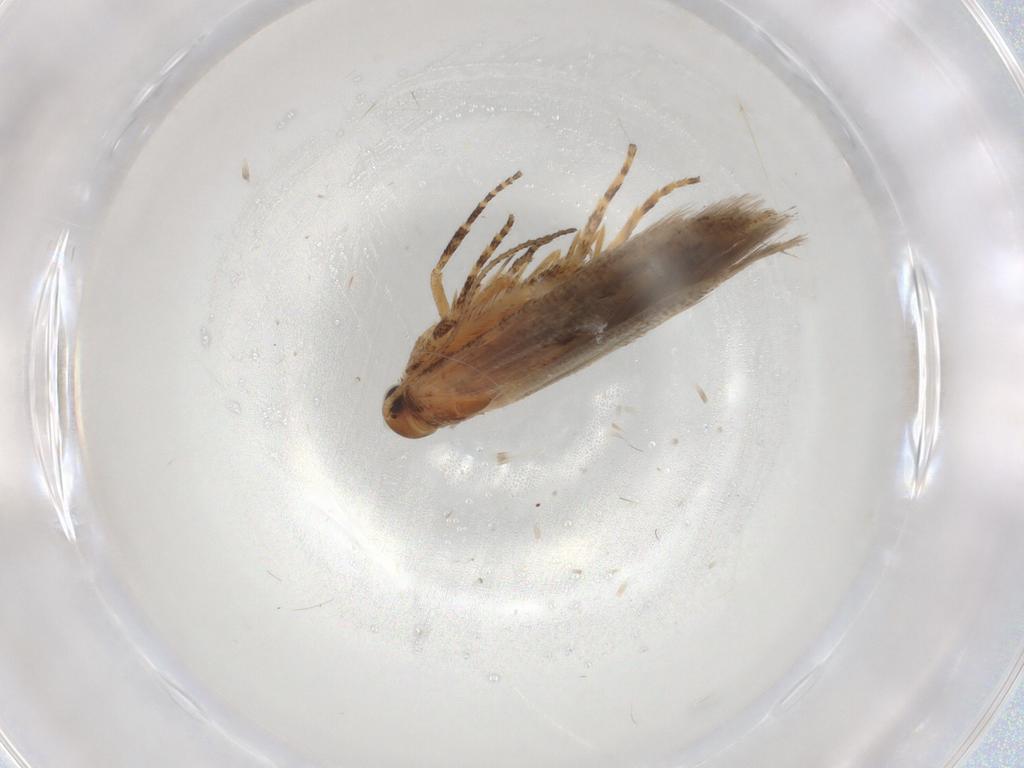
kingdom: Animalia
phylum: Arthropoda
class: Insecta
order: Lepidoptera
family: Gelechiidae
